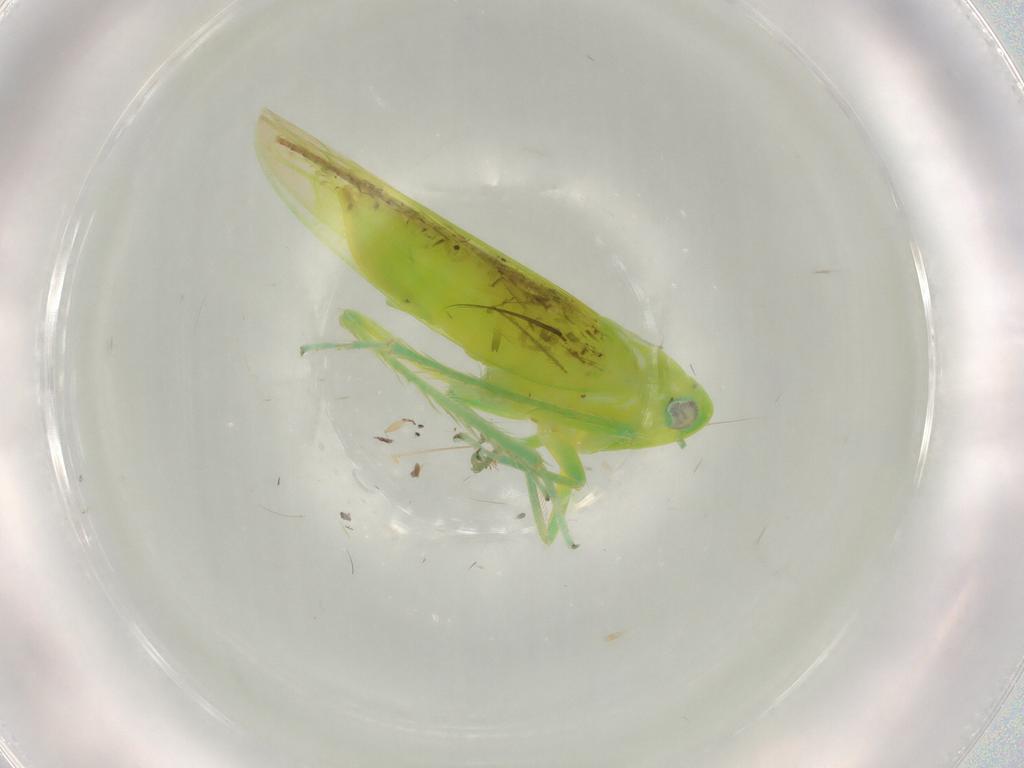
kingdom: Animalia
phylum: Arthropoda
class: Insecta
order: Hemiptera
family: Cicadellidae
